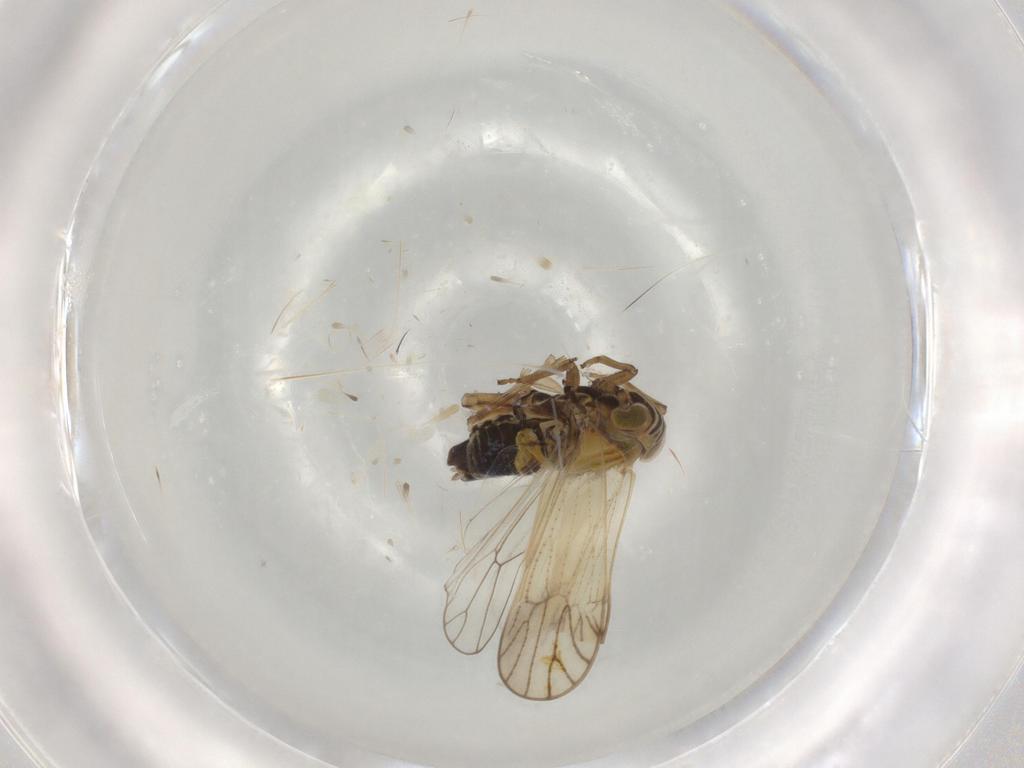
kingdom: Animalia
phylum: Arthropoda
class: Insecta
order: Hemiptera
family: Delphacidae
